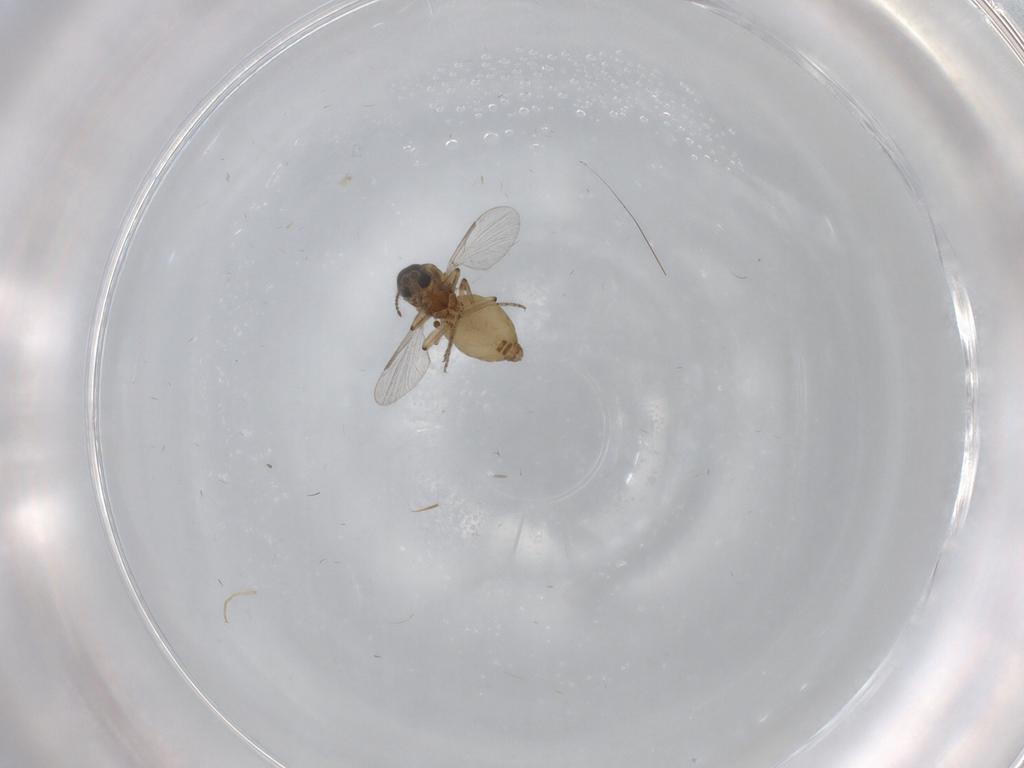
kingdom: Animalia
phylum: Arthropoda
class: Insecta
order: Diptera
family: Ceratopogonidae
